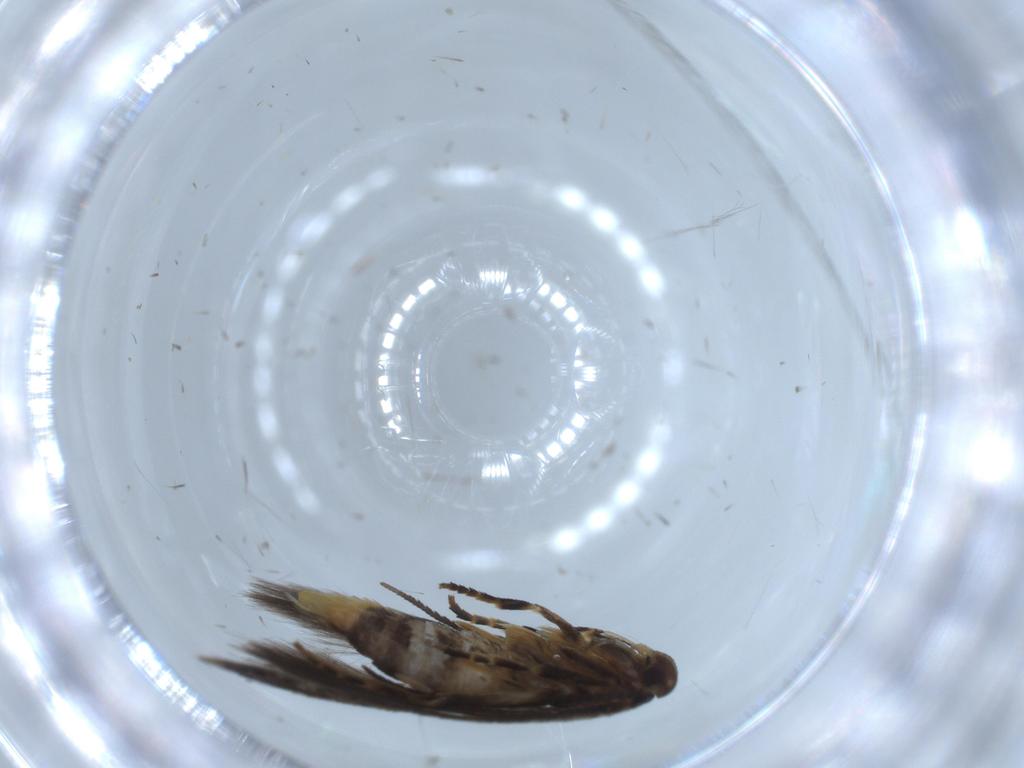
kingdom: Animalia
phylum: Arthropoda
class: Insecta
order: Lepidoptera
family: Elachistidae
